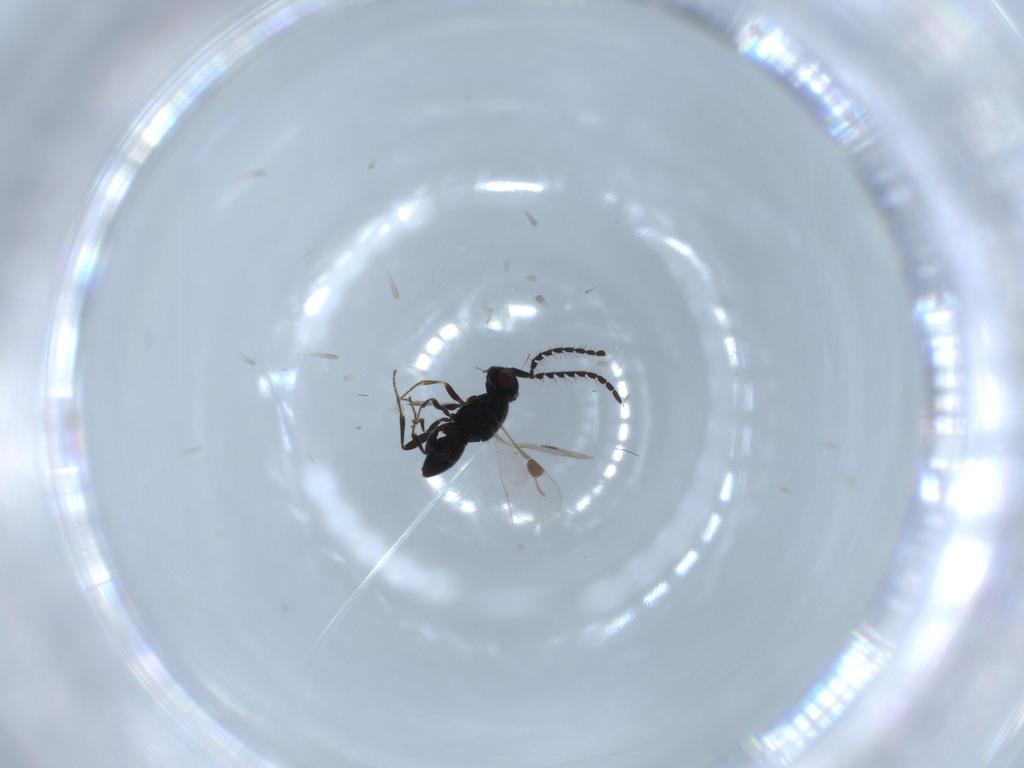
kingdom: Animalia
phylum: Arthropoda
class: Insecta
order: Hymenoptera
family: Platygastridae
